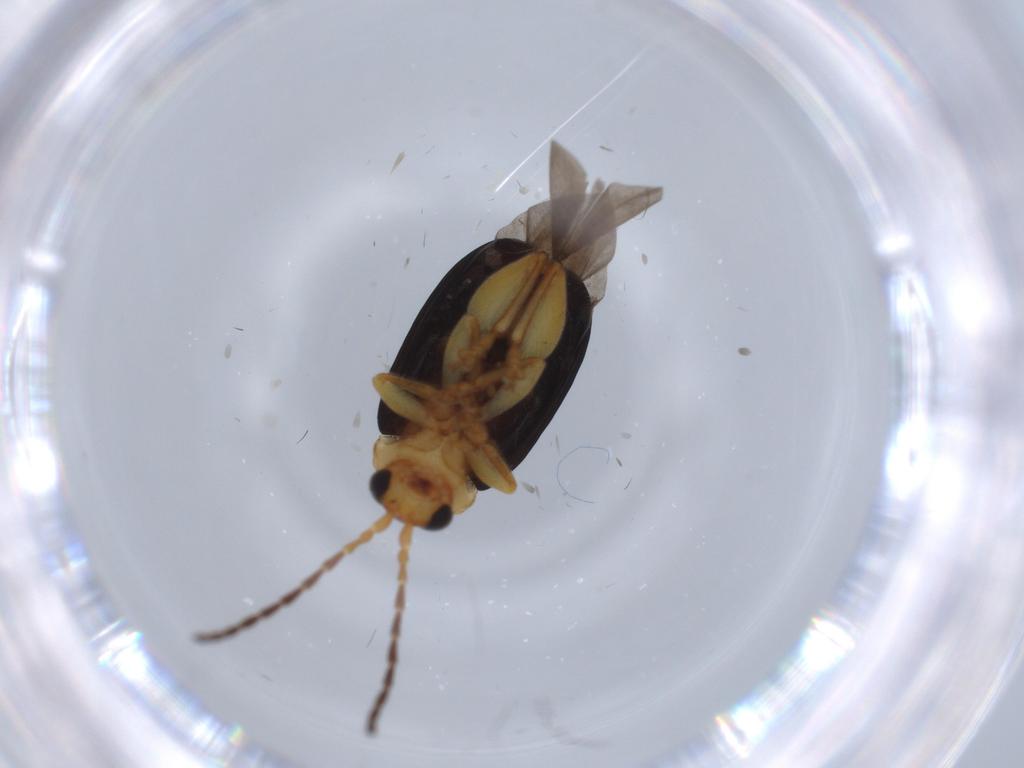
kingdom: Animalia
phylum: Arthropoda
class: Insecta
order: Coleoptera
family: Chrysomelidae
